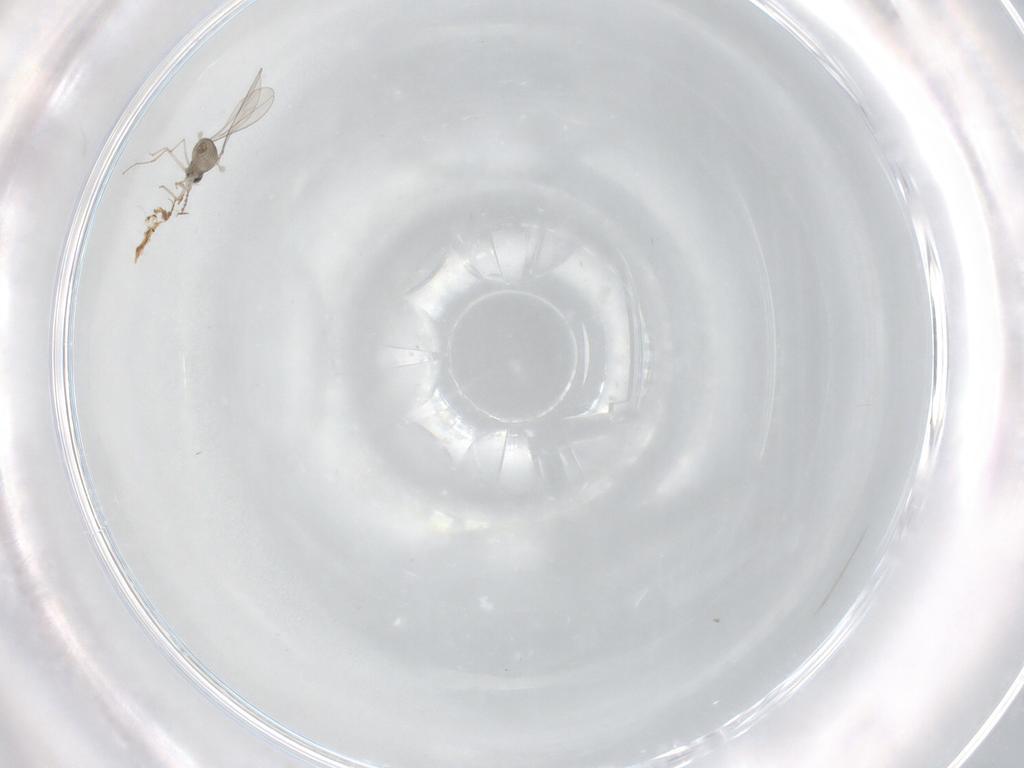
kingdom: Animalia
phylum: Arthropoda
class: Insecta
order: Diptera
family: Cecidomyiidae
